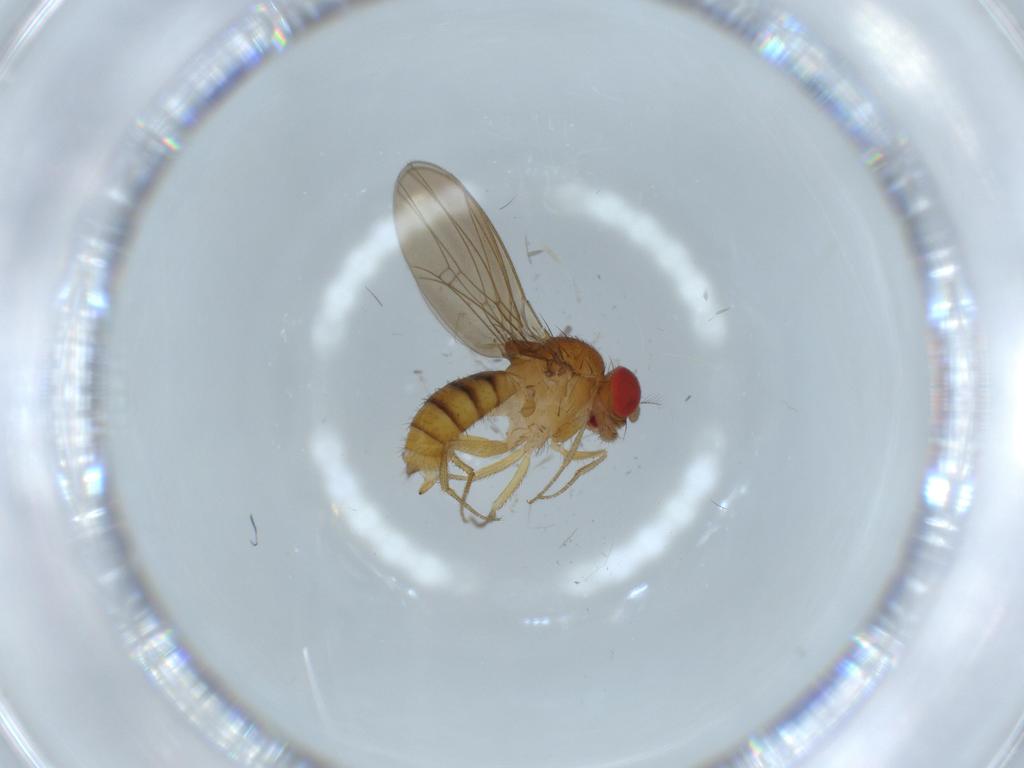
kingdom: Animalia
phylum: Arthropoda
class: Insecta
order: Diptera
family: Drosophilidae
